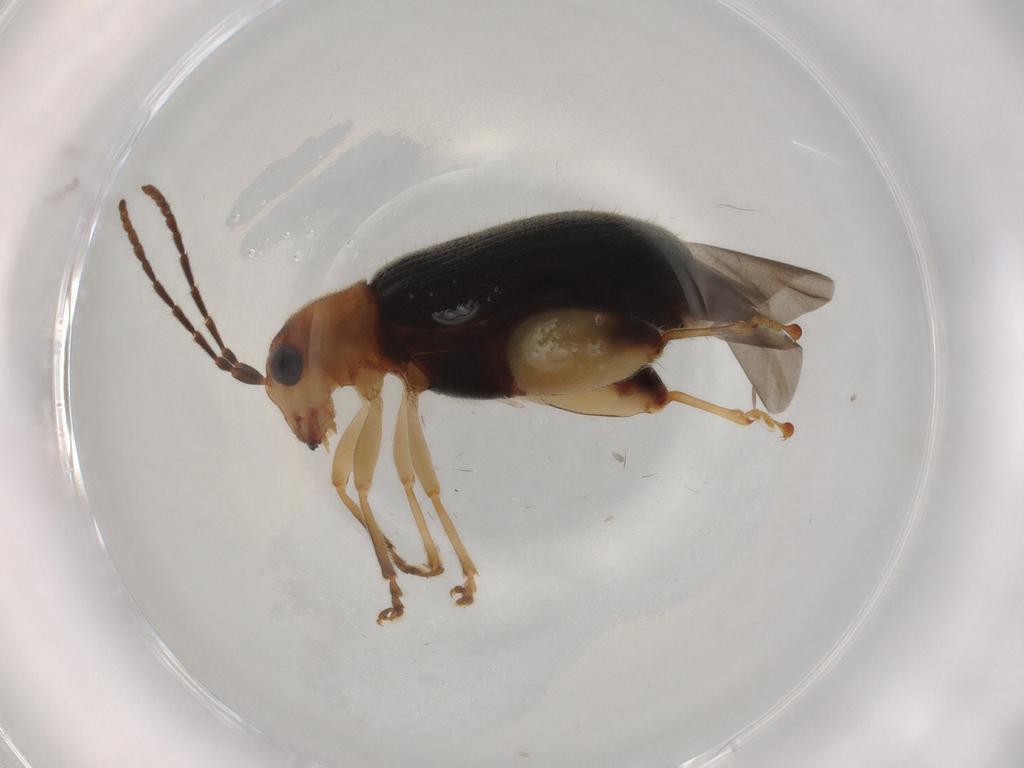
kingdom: Animalia
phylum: Arthropoda
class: Insecta
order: Coleoptera
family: Chrysomelidae
